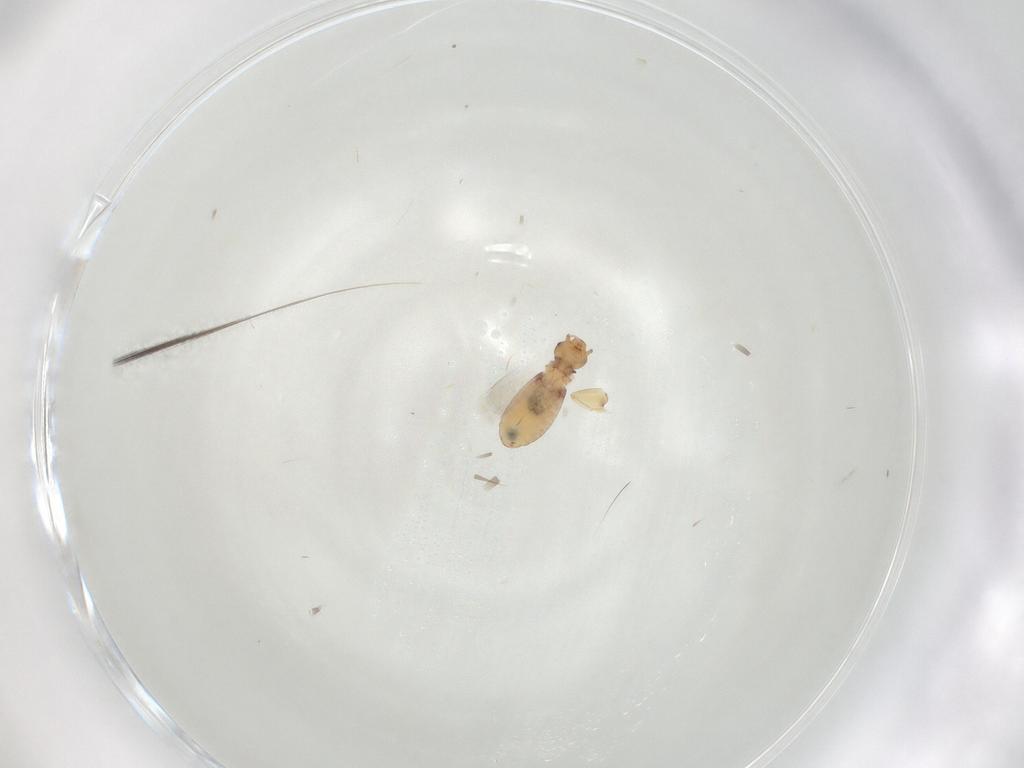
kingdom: Animalia
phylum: Arthropoda
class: Insecta
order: Psocodea
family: Liposcelididae
